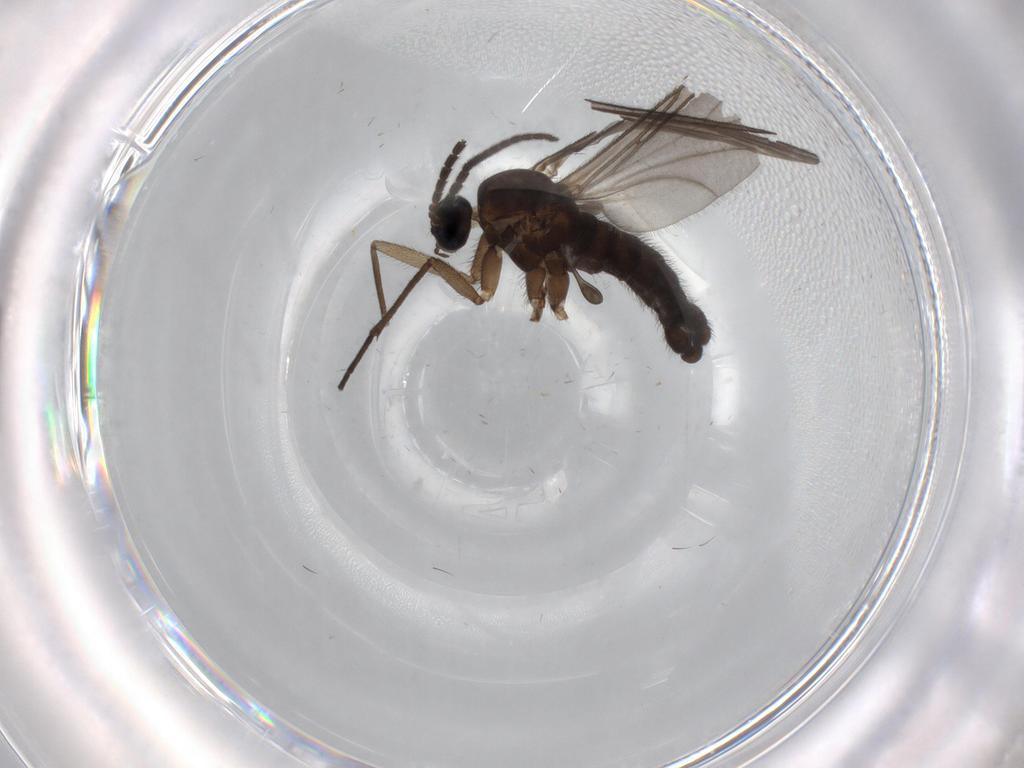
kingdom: Animalia
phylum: Arthropoda
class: Insecta
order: Diptera
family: Sciaridae
